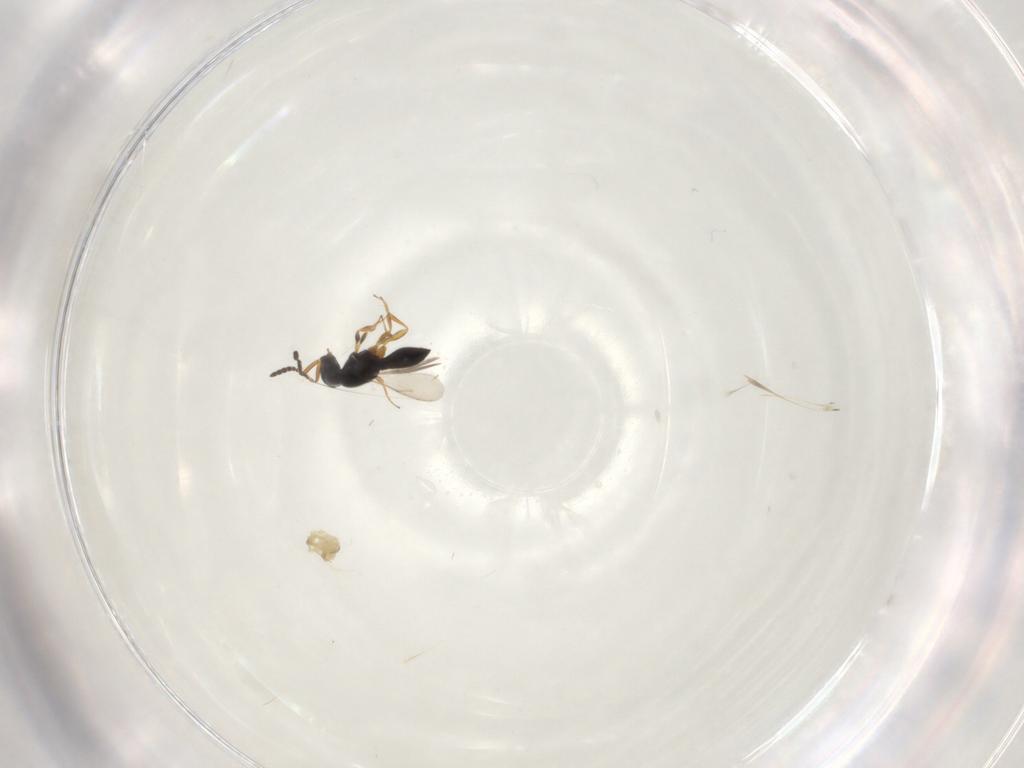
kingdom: Animalia
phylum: Arthropoda
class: Insecta
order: Hymenoptera
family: Scelionidae
